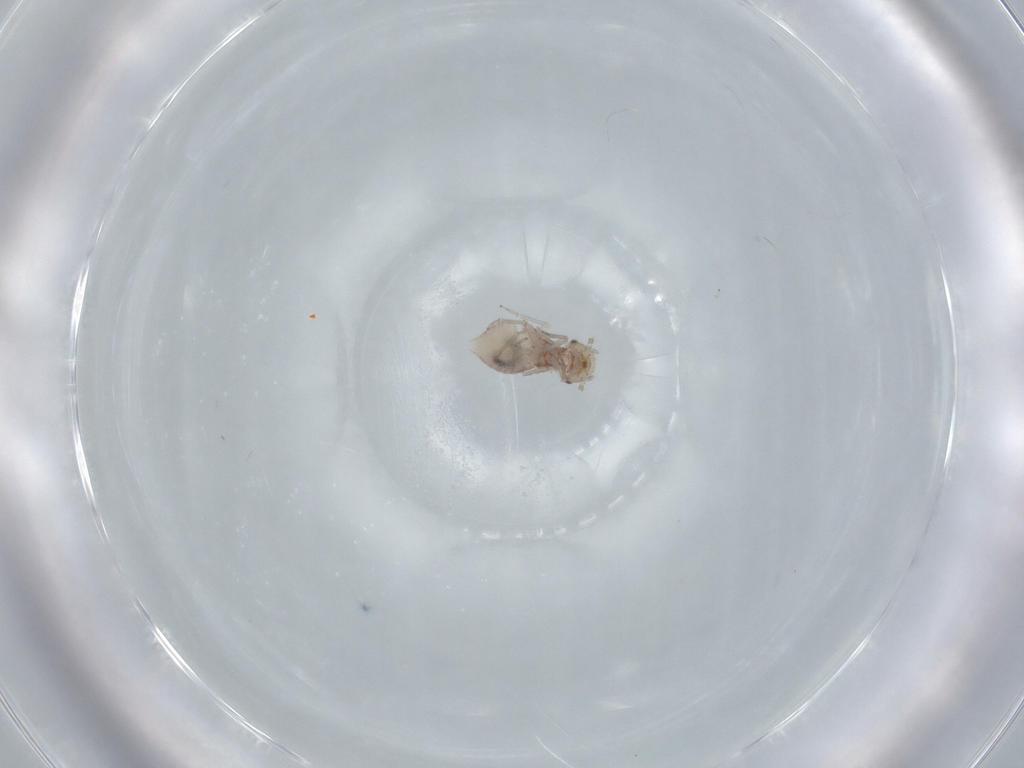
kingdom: Animalia
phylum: Arthropoda
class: Insecta
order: Psocodea
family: Ectopsocidae
